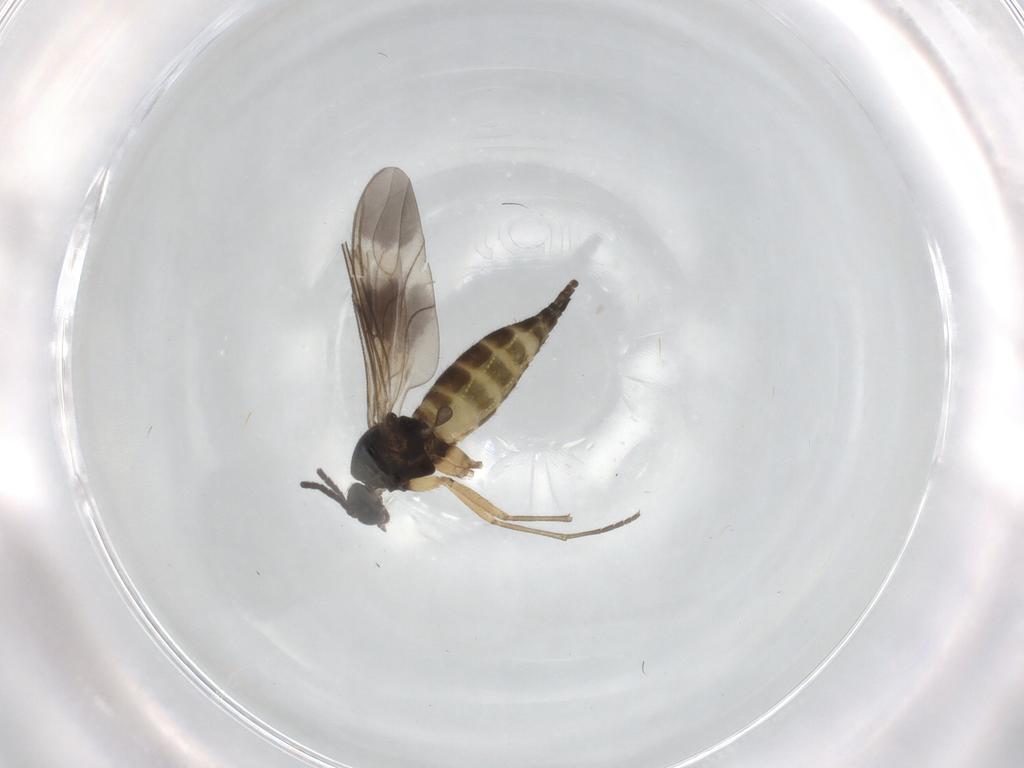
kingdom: Animalia
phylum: Arthropoda
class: Insecta
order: Diptera
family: Sciaridae
